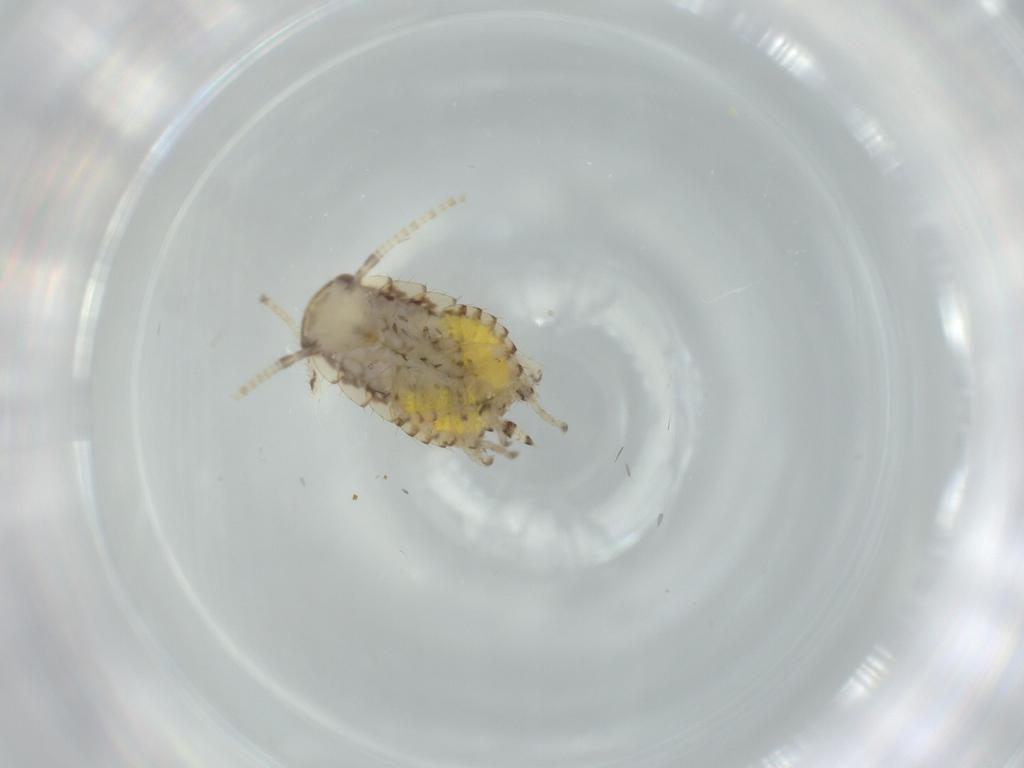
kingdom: Animalia
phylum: Arthropoda
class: Insecta
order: Blattodea
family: Ectobiidae
